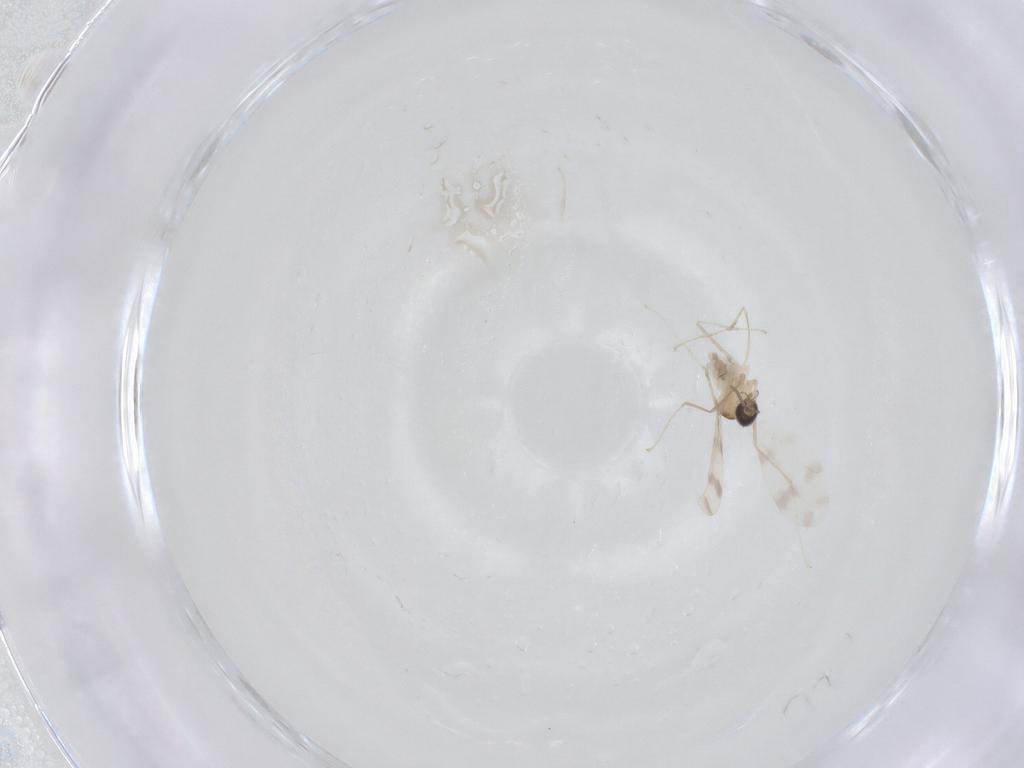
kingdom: Animalia
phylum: Arthropoda
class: Insecta
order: Diptera
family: Cecidomyiidae
